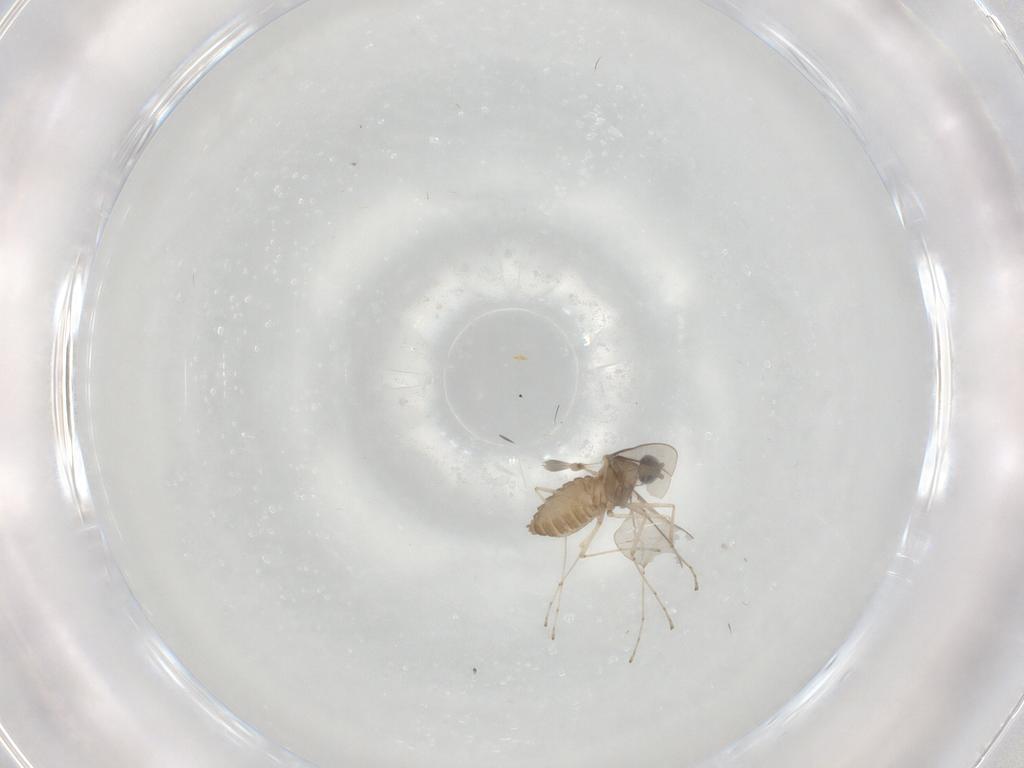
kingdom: Animalia
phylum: Arthropoda
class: Insecta
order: Diptera
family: Cecidomyiidae
